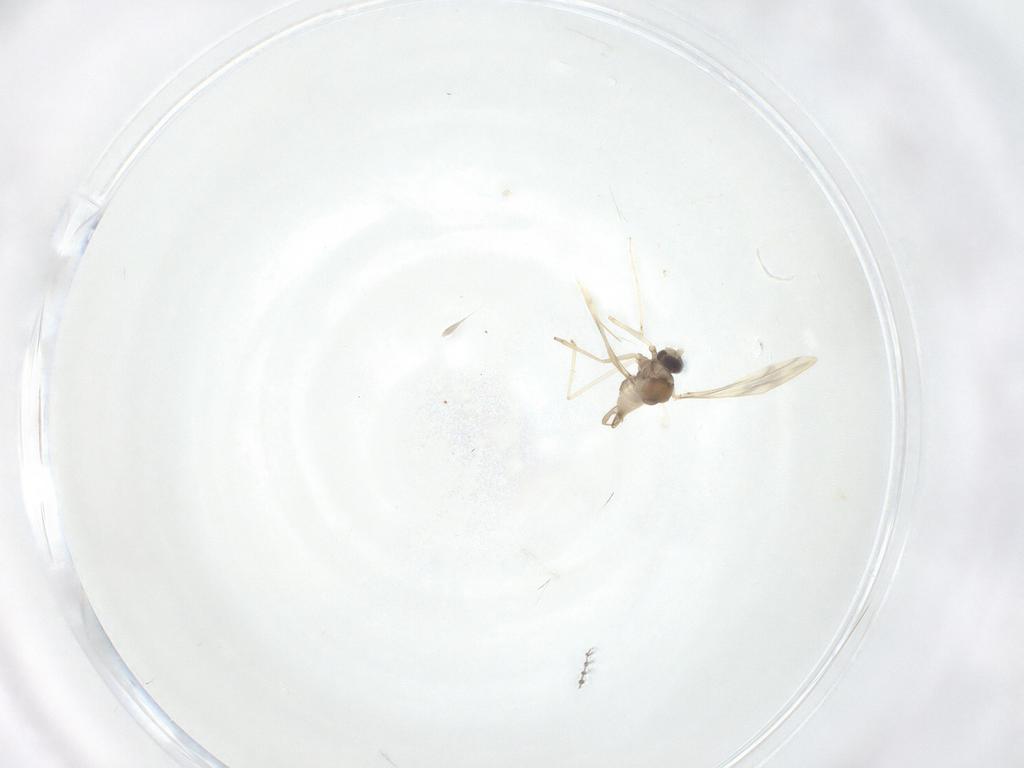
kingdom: Animalia
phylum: Arthropoda
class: Insecta
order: Diptera
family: Cecidomyiidae
